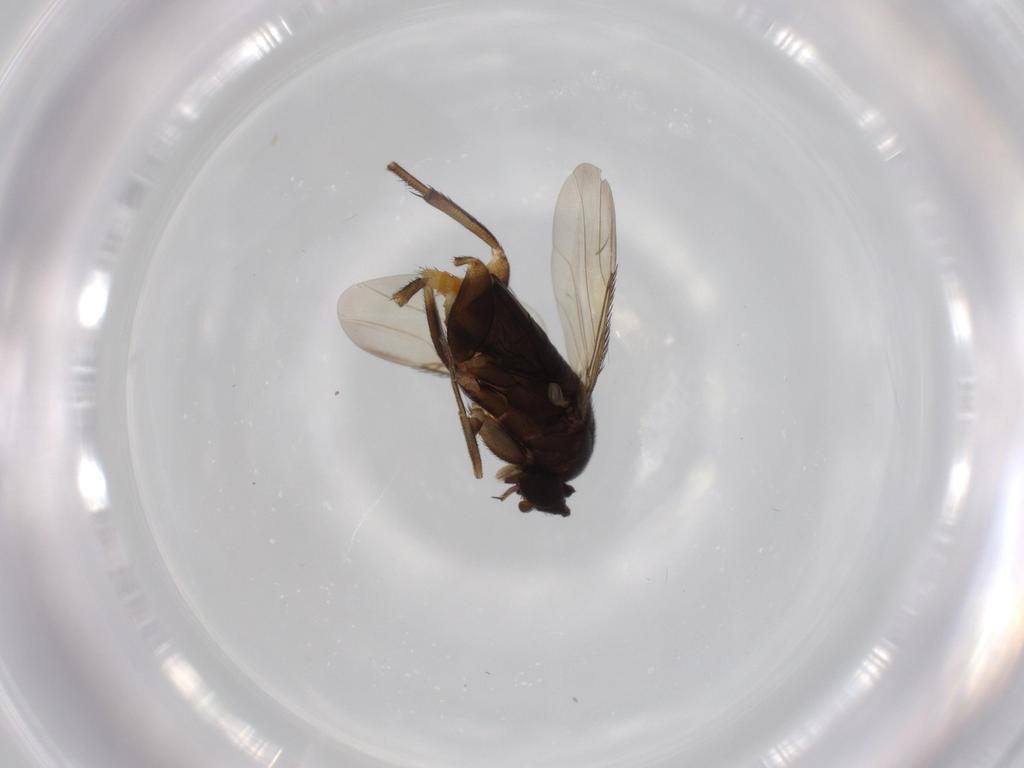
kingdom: Animalia
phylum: Arthropoda
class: Insecta
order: Diptera
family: Phoridae
